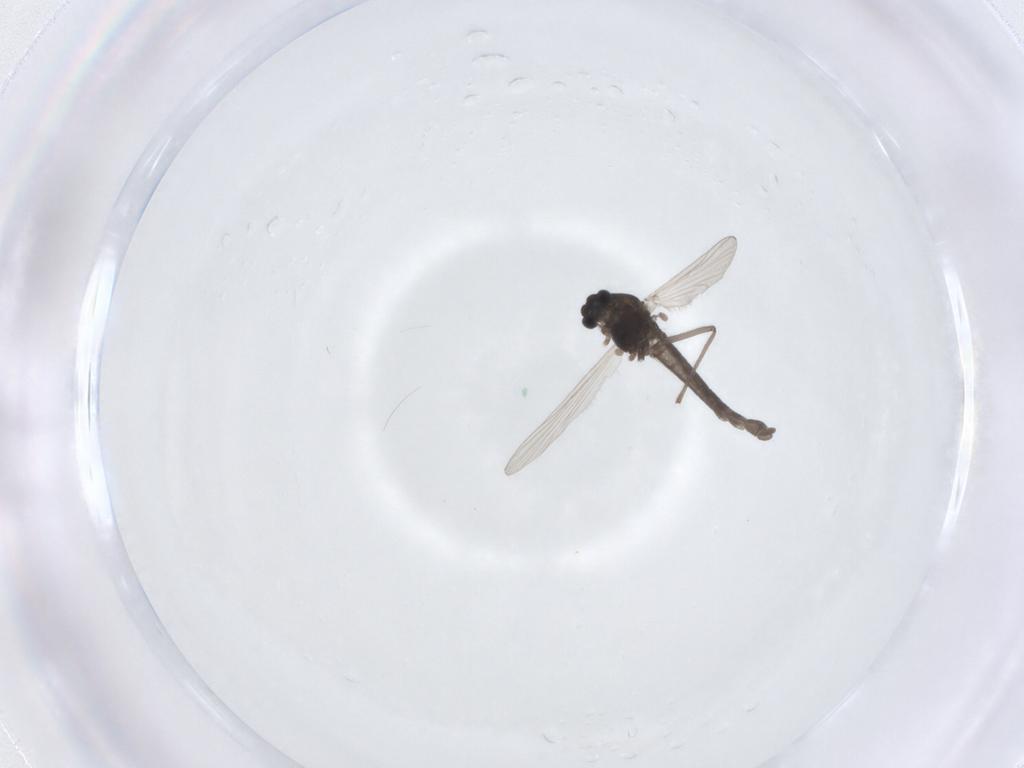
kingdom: Animalia
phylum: Arthropoda
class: Insecta
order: Diptera
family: Chironomidae
